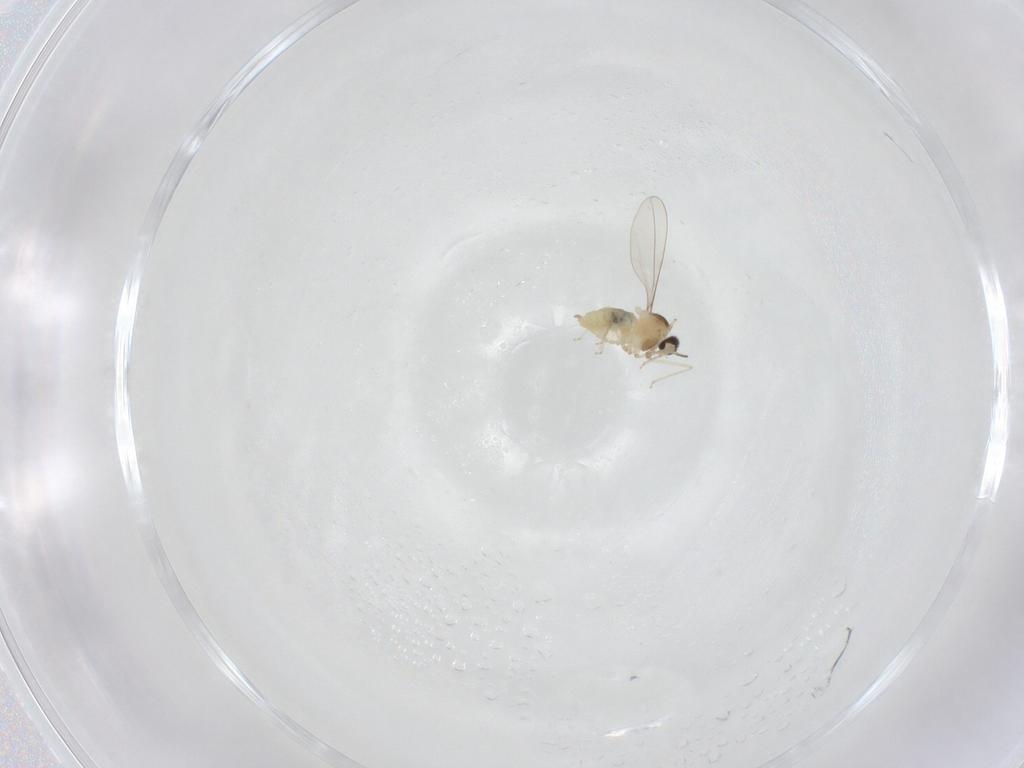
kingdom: Animalia
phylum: Arthropoda
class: Insecta
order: Diptera
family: Cecidomyiidae
